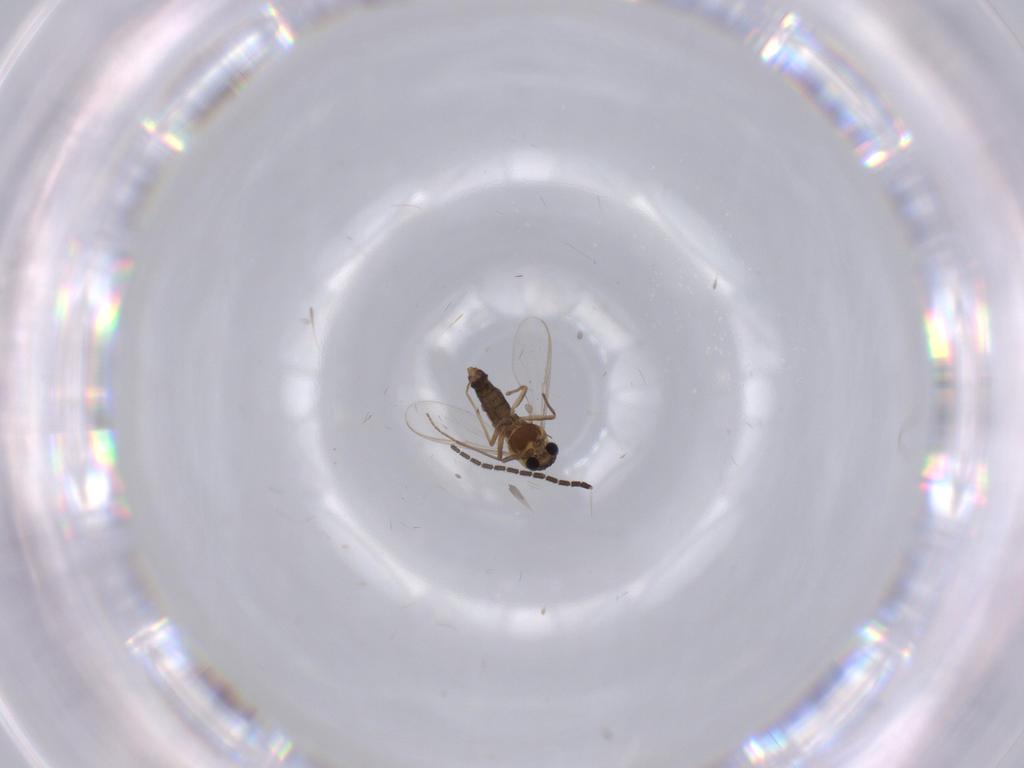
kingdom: Animalia
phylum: Arthropoda
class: Insecta
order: Diptera
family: Chironomidae
